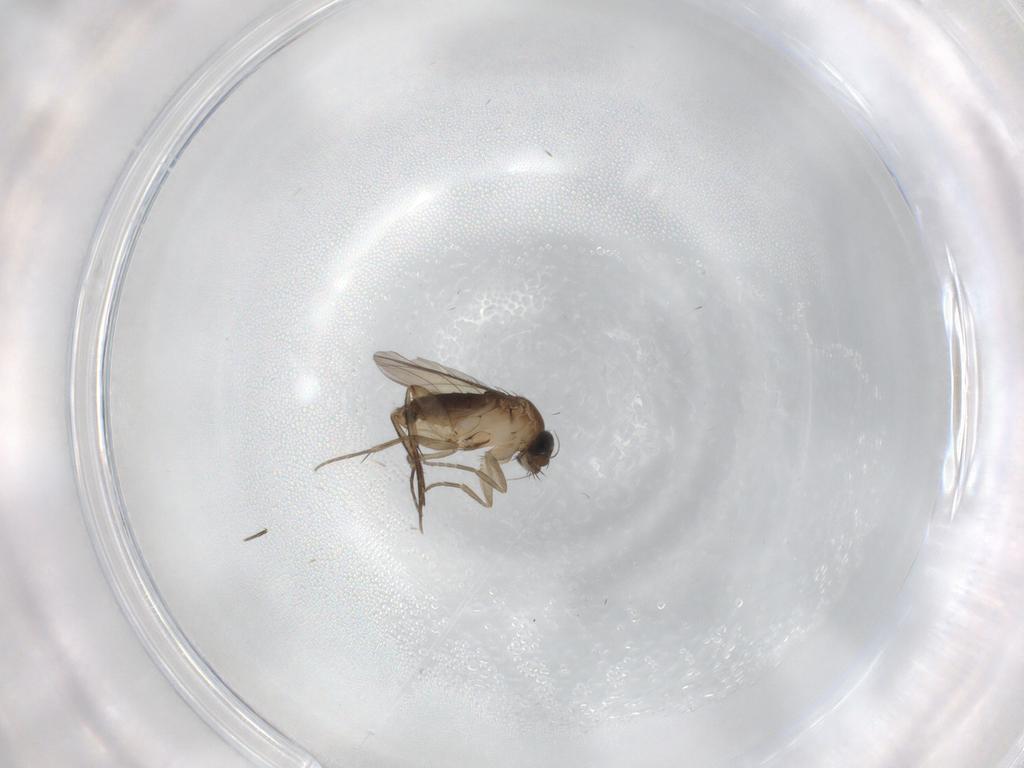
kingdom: Animalia
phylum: Arthropoda
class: Insecta
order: Diptera
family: Phoridae
